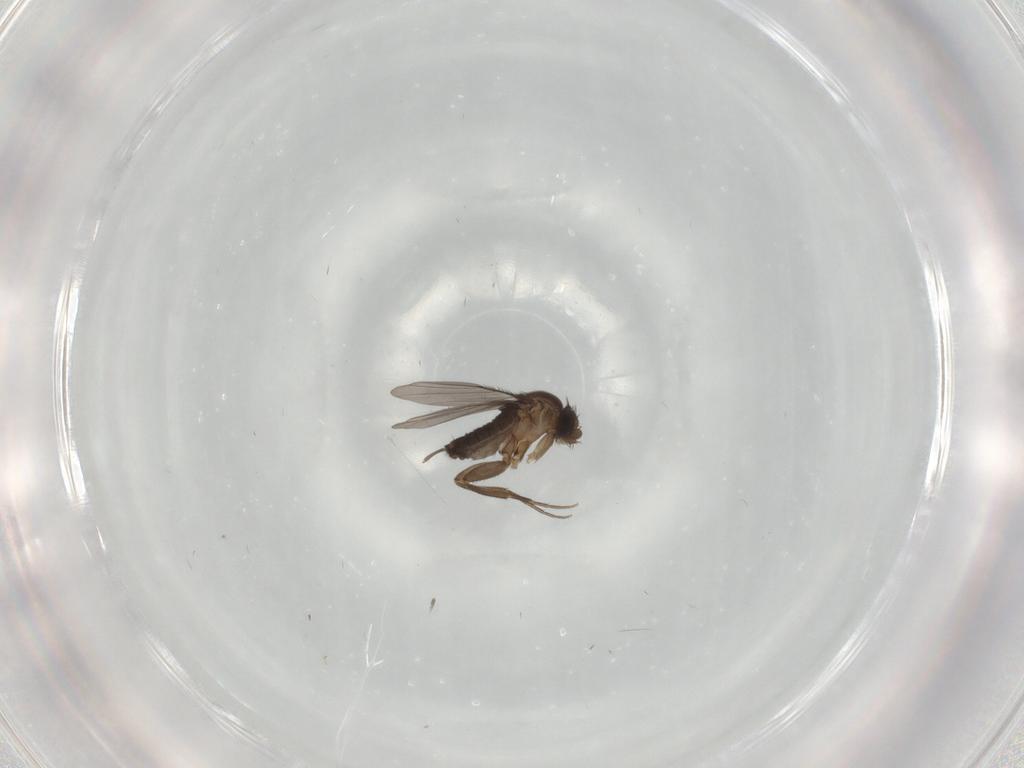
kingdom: Animalia
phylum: Arthropoda
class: Insecta
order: Diptera
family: Phoridae
